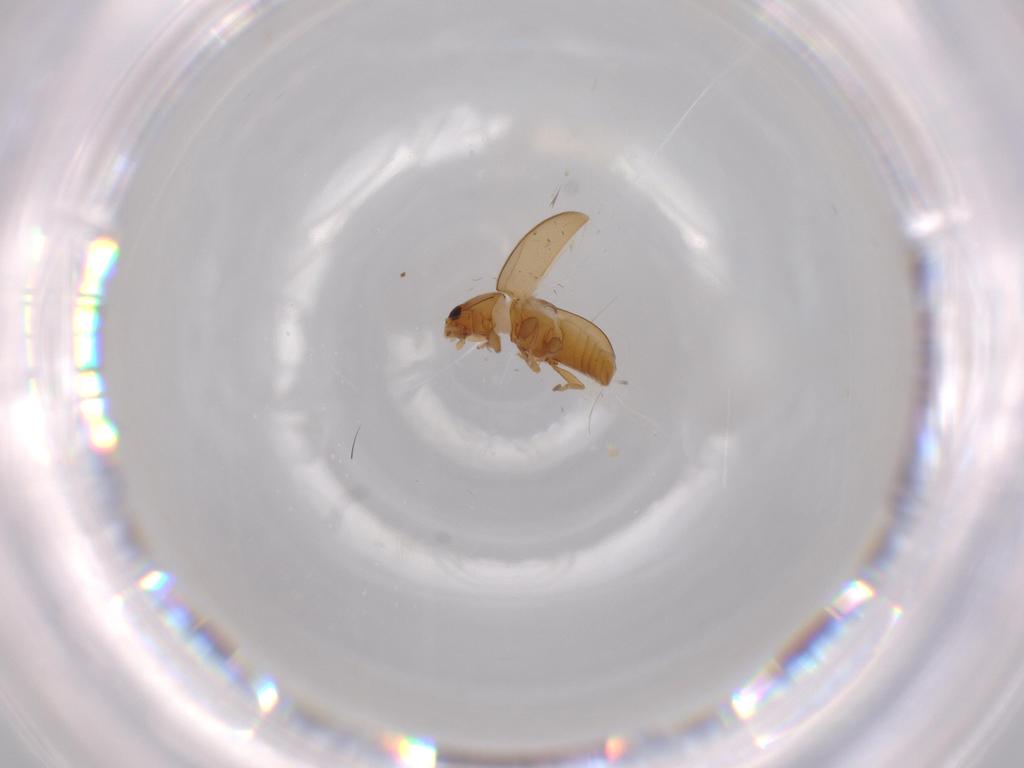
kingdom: Animalia
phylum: Arthropoda
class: Insecta
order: Coleoptera
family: Coccinellidae
